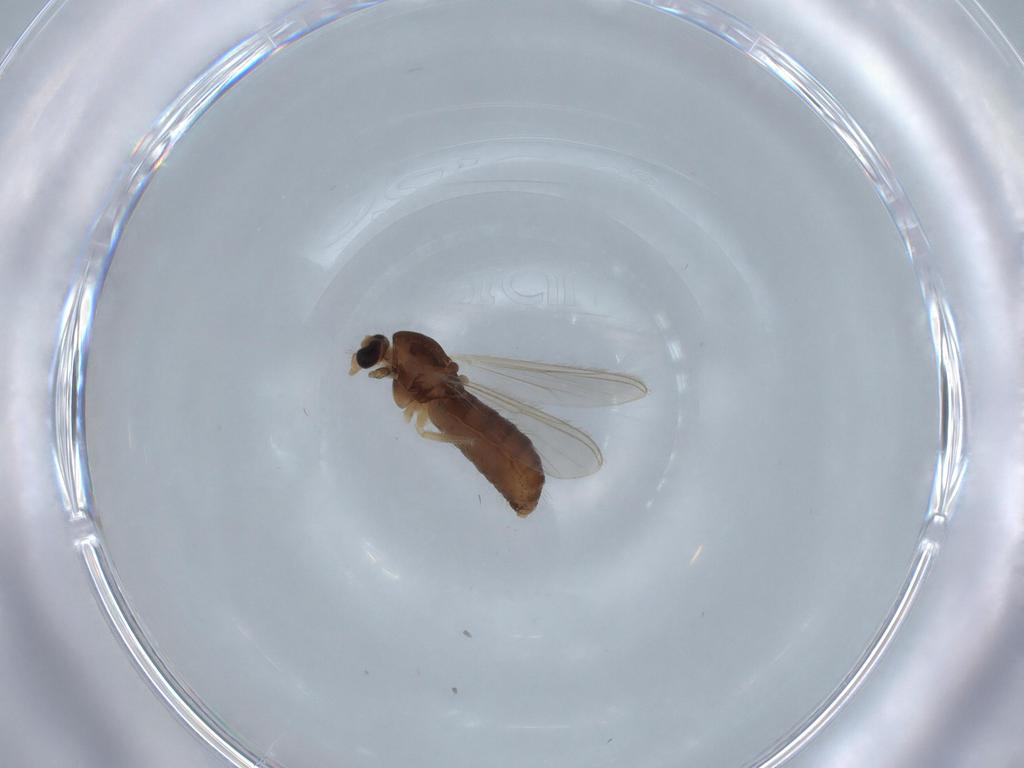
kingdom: Animalia
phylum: Arthropoda
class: Insecta
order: Diptera
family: Chironomidae
